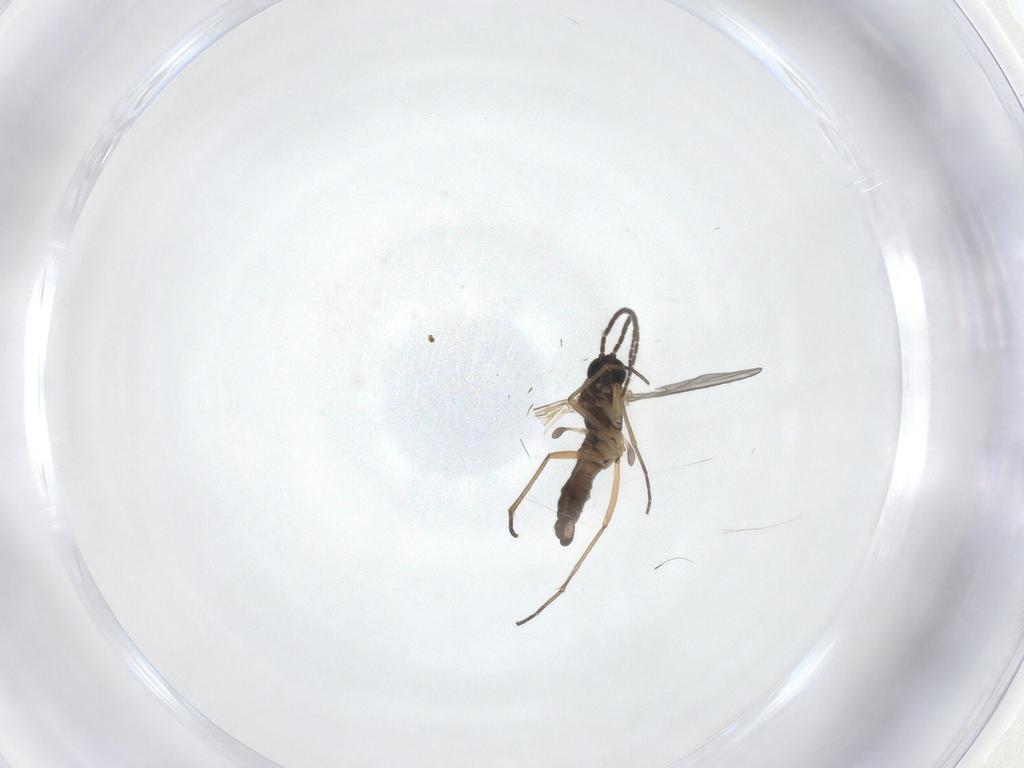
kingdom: Animalia
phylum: Arthropoda
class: Insecta
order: Diptera
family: Sciaridae
